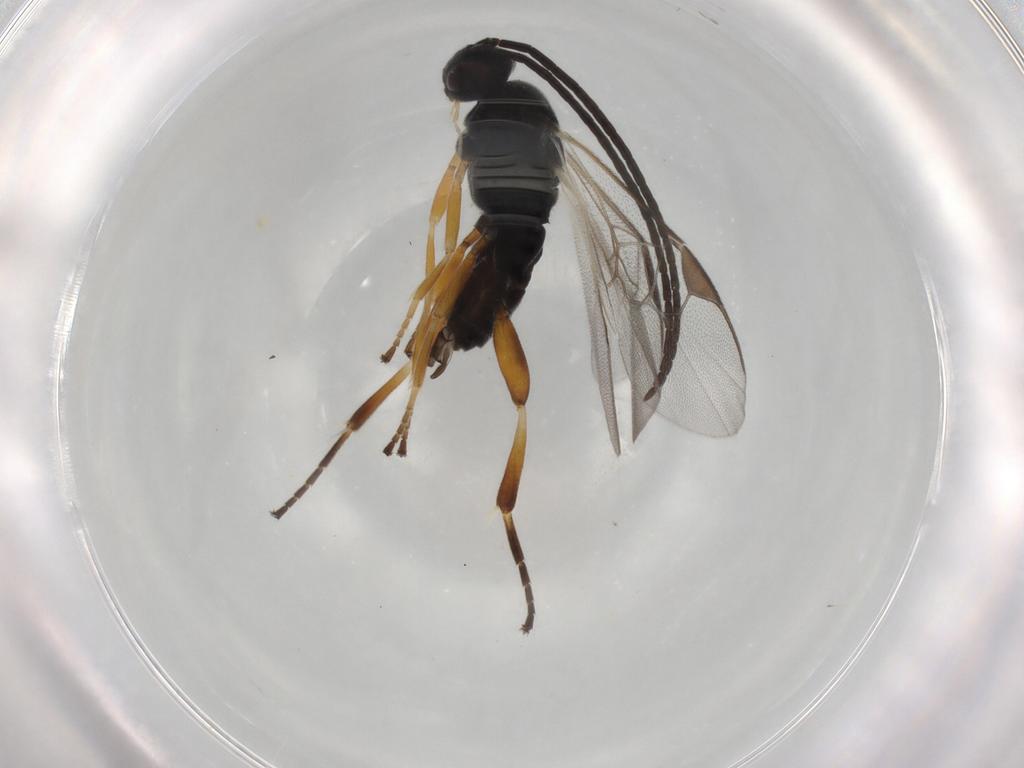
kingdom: Animalia
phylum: Arthropoda
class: Insecta
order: Hymenoptera
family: Braconidae
